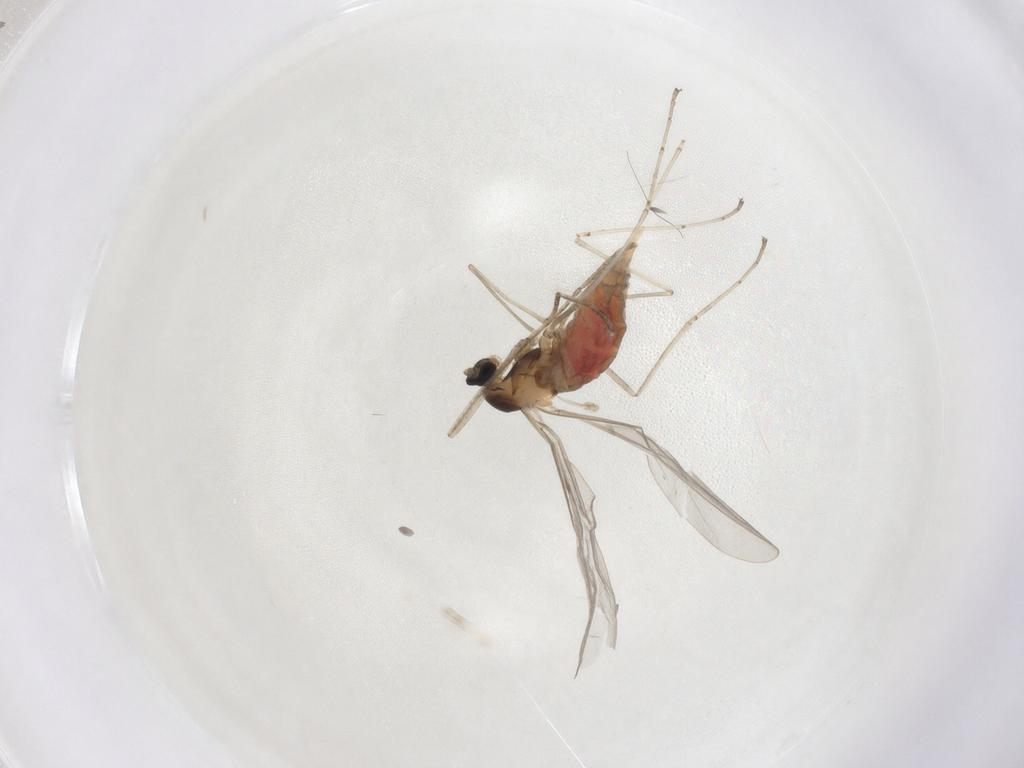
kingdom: Animalia
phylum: Arthropoda
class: Insecta
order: Diptera
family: Cecidomyiidae
